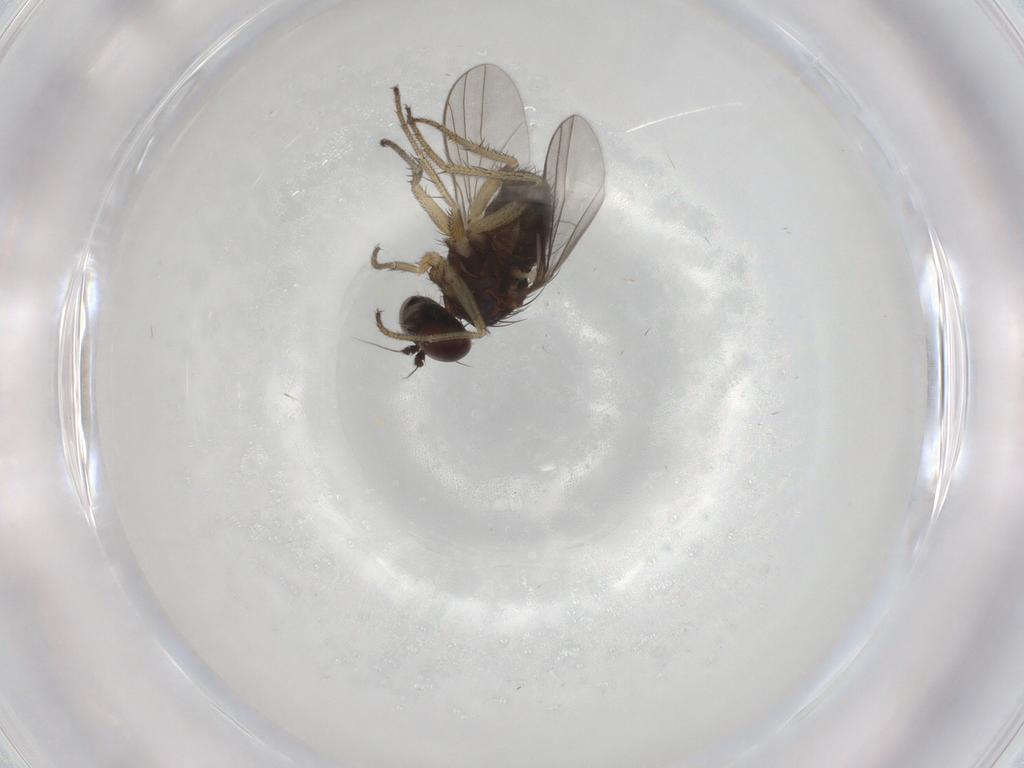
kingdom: Animalia
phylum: Arthropoda
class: Insecta
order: Diptera
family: Dolichopodidae
